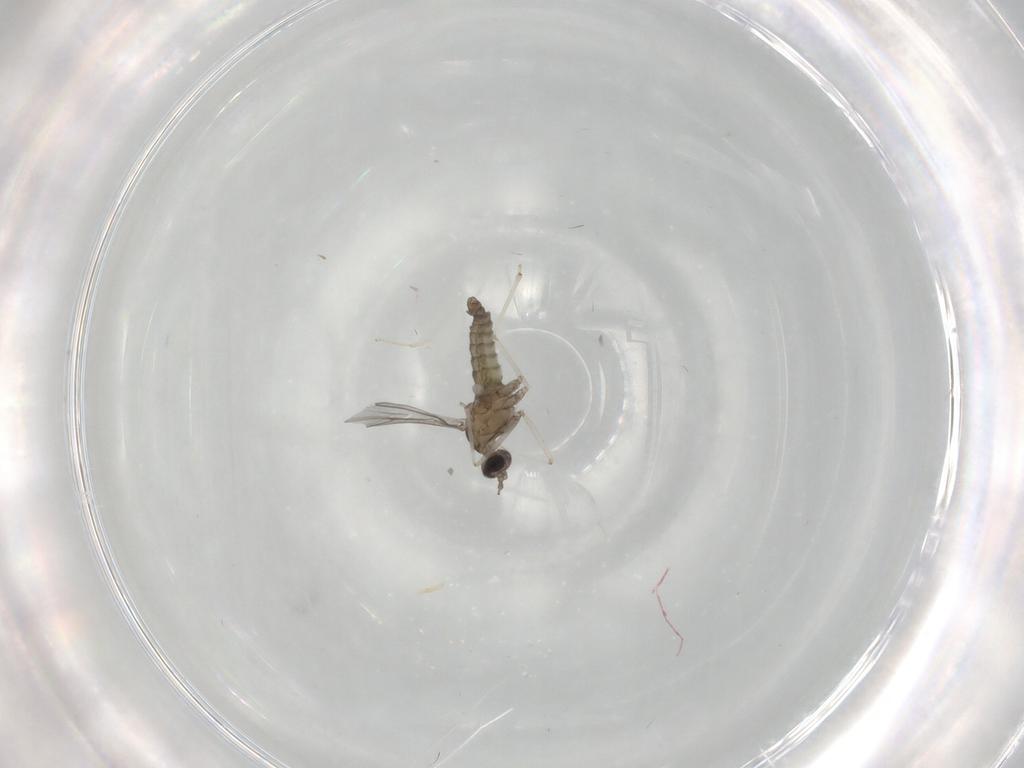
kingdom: Animalia
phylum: Arthropoda
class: Insecta
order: Diptera
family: Cecidomyiidae
